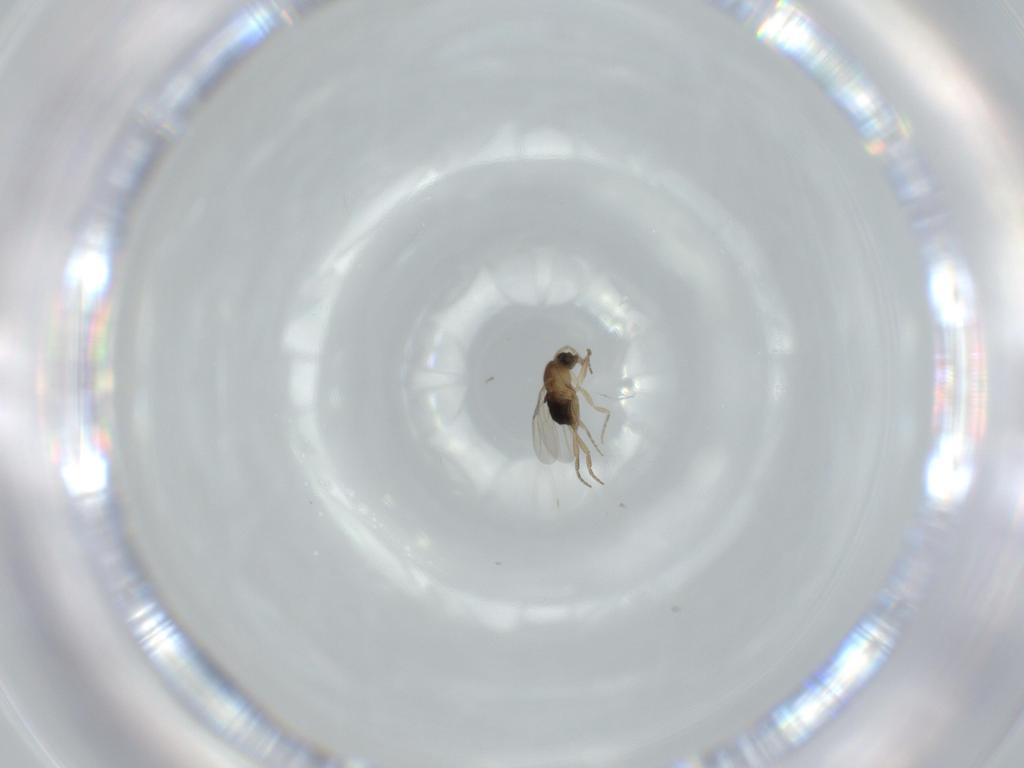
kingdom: Animalia
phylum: Arthropoda
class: Insecta
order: Diptera
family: Phoridae
